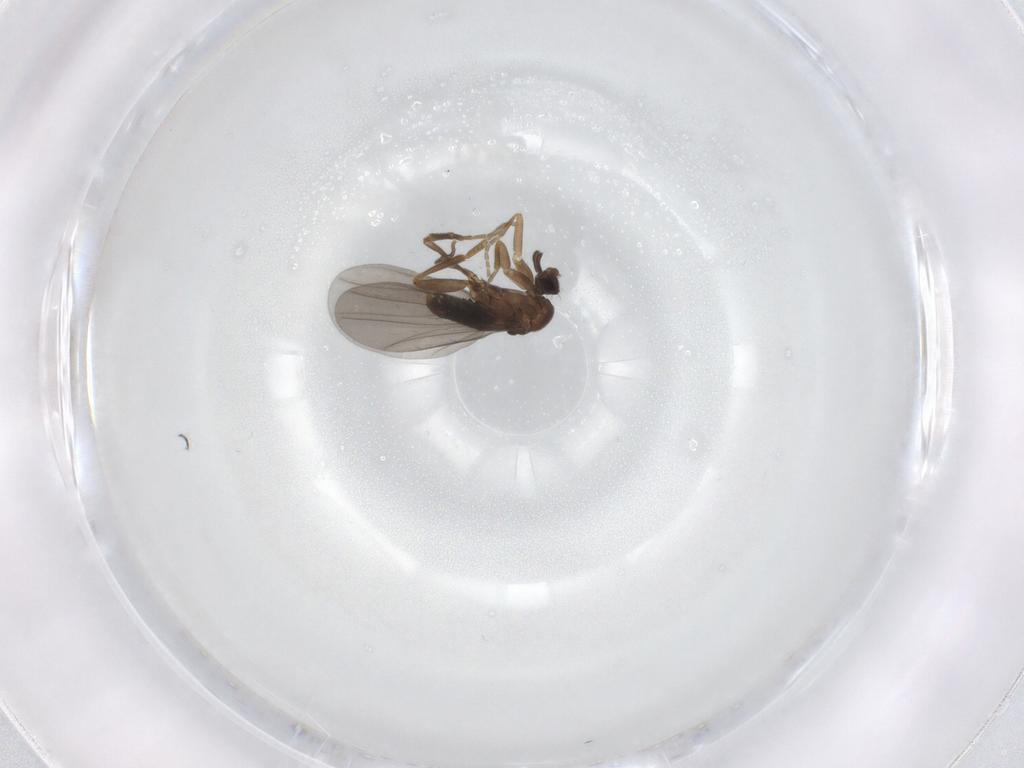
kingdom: Animalia
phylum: Arthropoda
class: Insecta
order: Diptera
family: Phoridae
